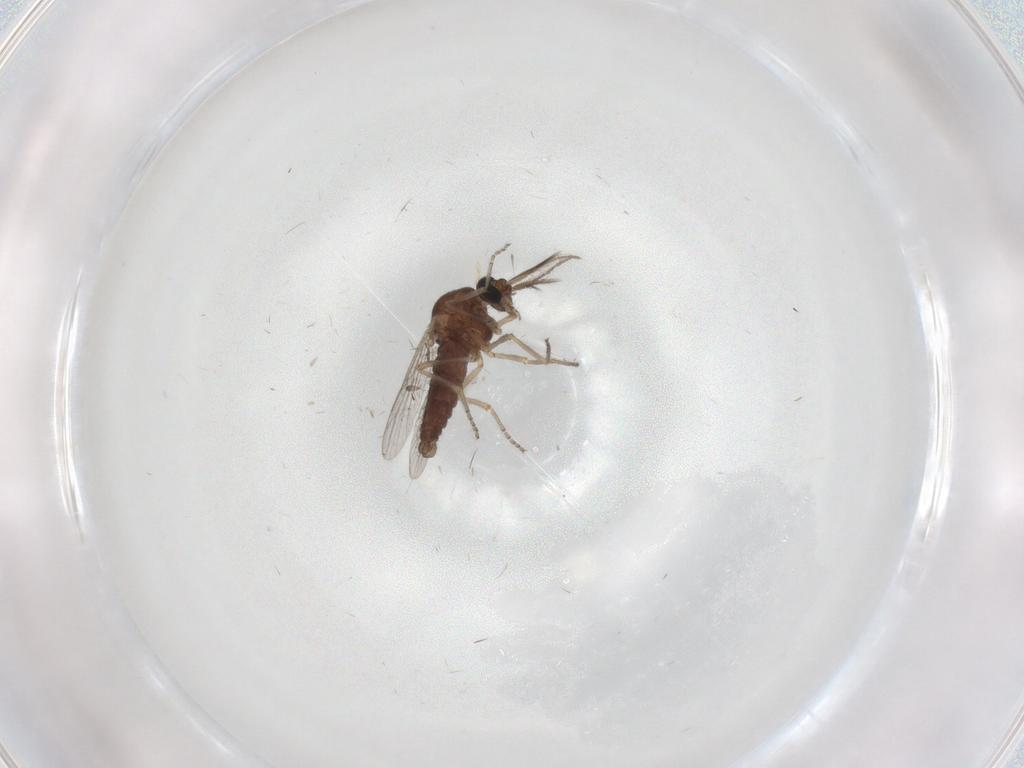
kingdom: Animalia
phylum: Arthropoda
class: Insecta
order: Diptera
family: Ceratopogonidae
